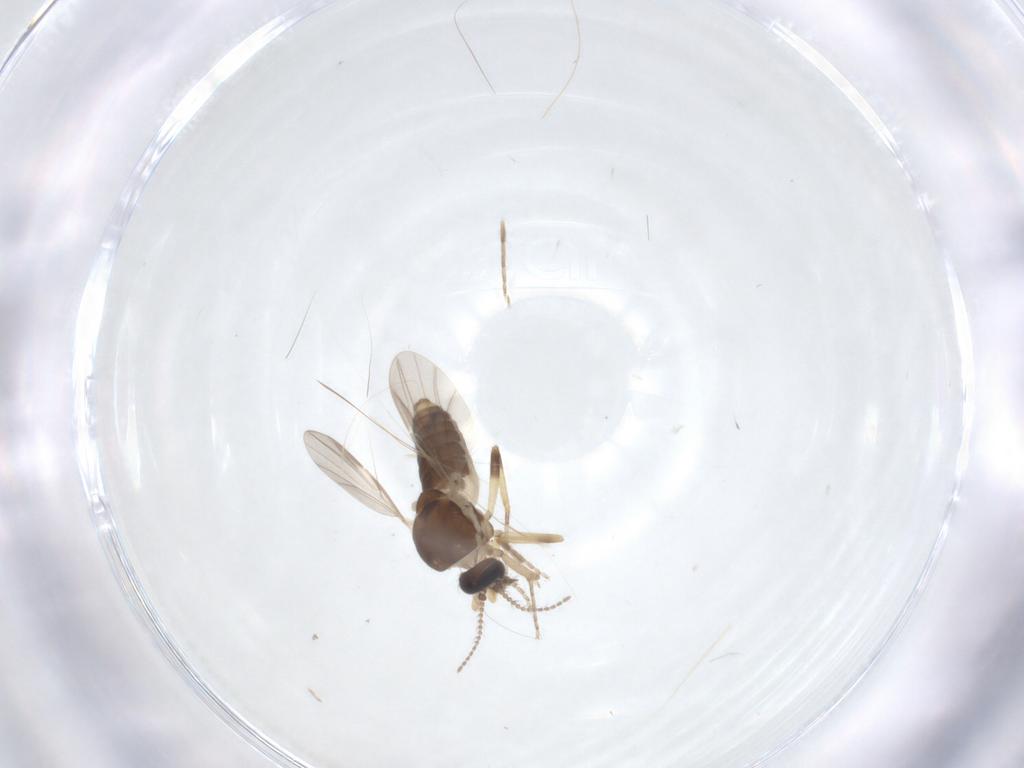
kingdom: Animalia
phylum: Arthropoda
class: Insecta
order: Diptera
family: Ceratopogonidae
